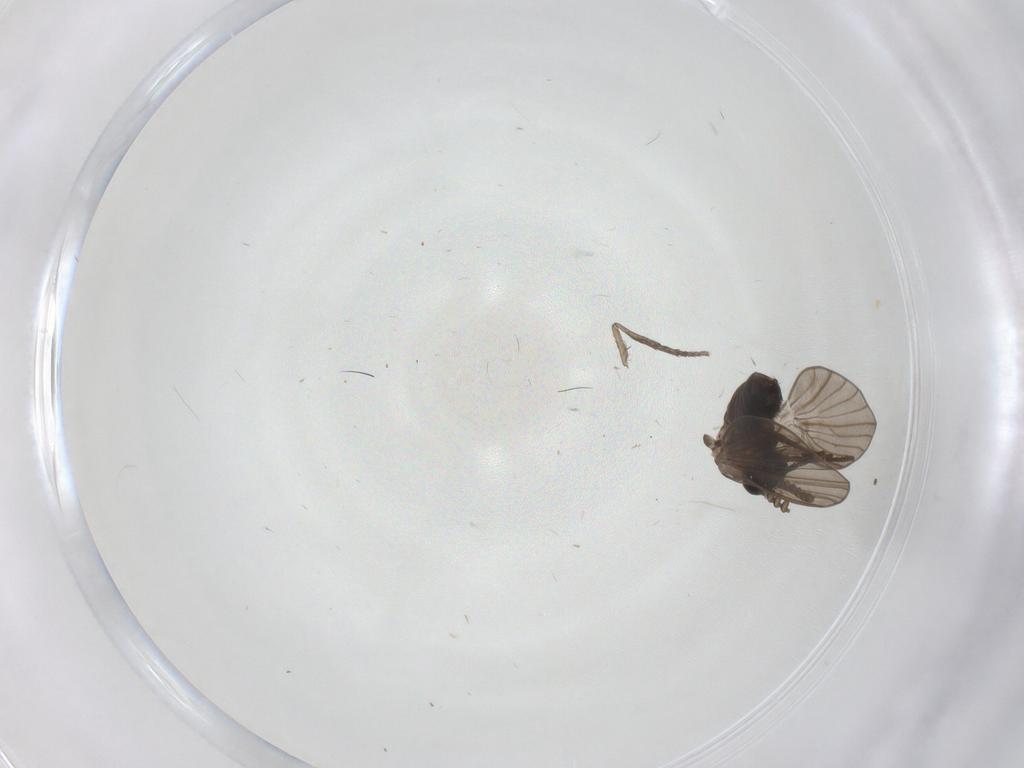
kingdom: Animalia
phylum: Arthropoda
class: Insecta
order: Diptera
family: Psychodidae
